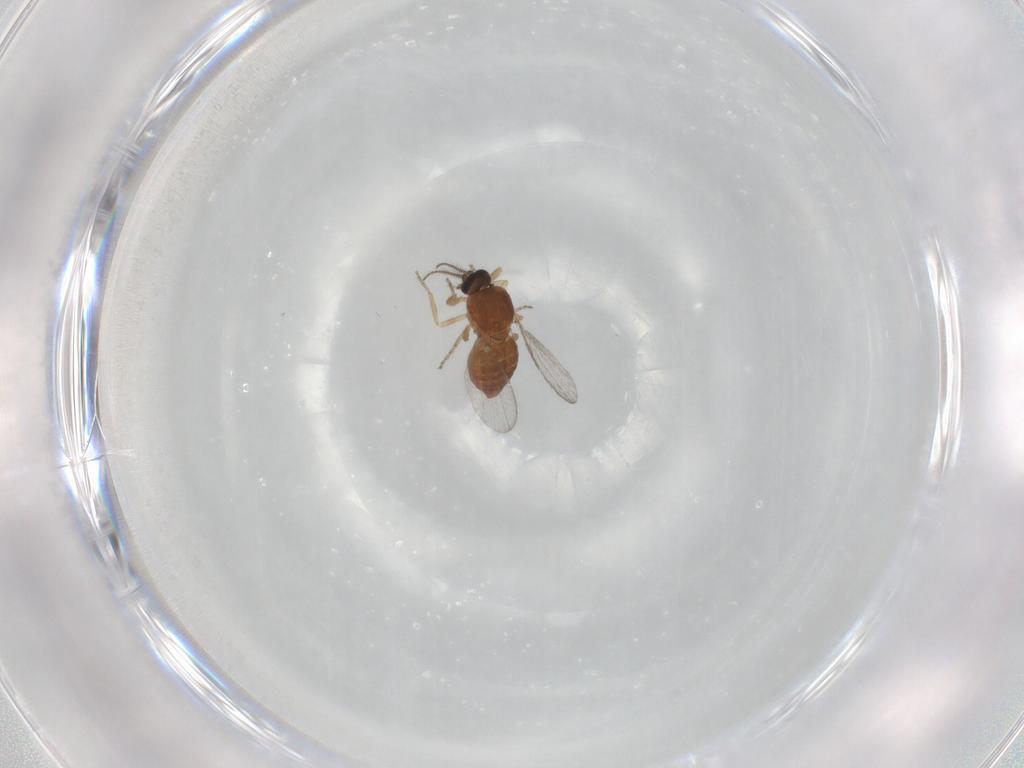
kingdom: Animalia
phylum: Arthropoda
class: Insecta
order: Diptera
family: Ceratopogonidae
